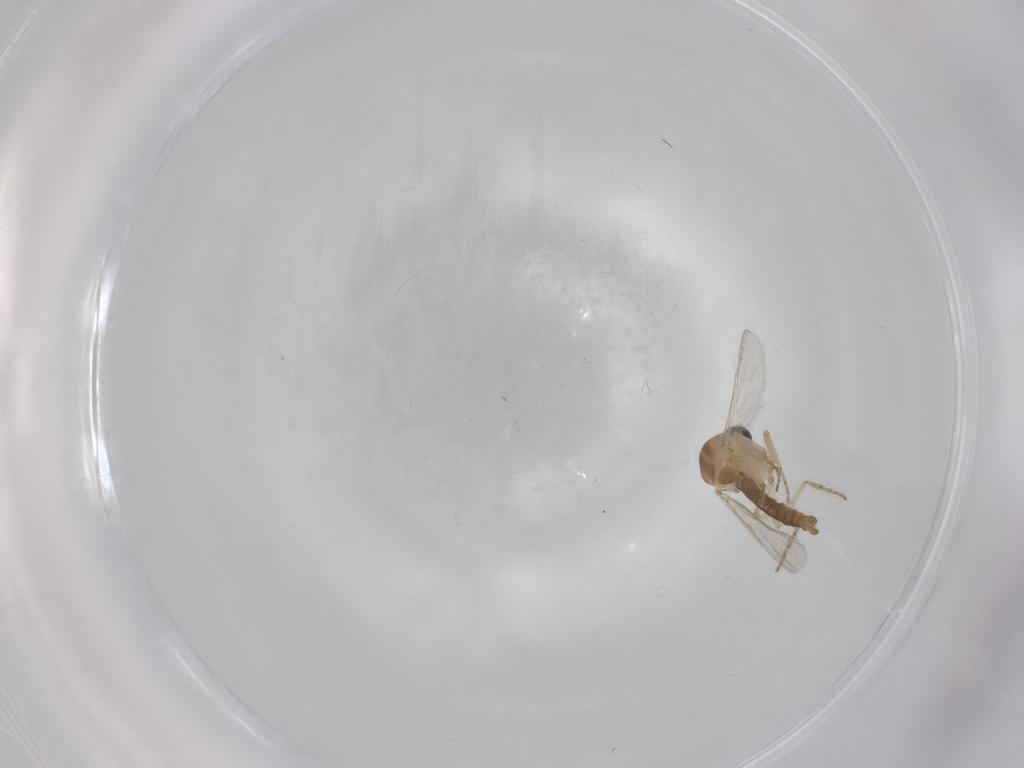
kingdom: Animalia
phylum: Arthropoda
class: Insecta
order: Diptera
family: Ceratopogonidae
